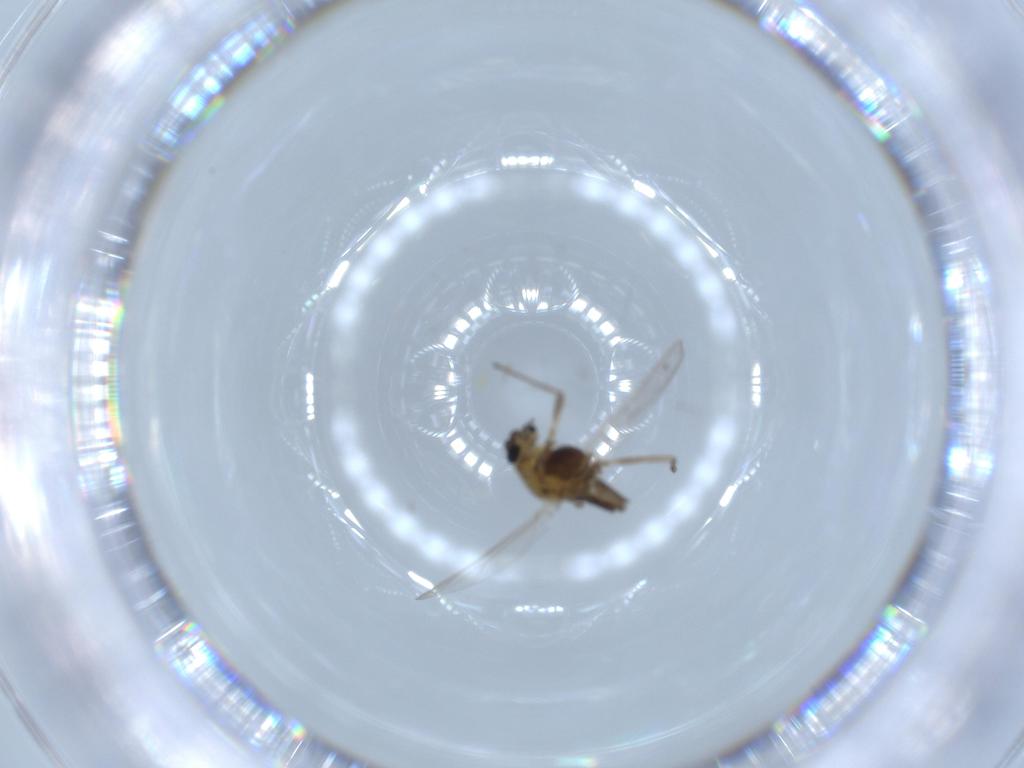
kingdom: Animalia
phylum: Arthropoda
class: Insecta
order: Diptera
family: Chironomidae
